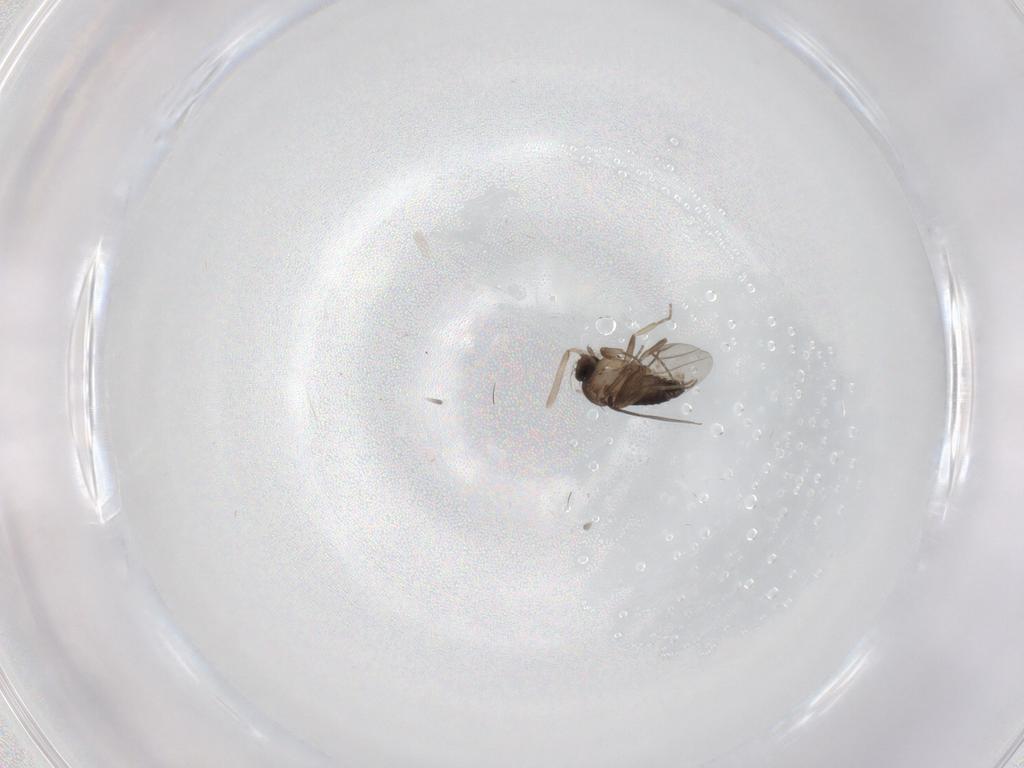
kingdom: Animalia
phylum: Arthropoda
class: Insecta
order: Diptera
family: Chironomidae
